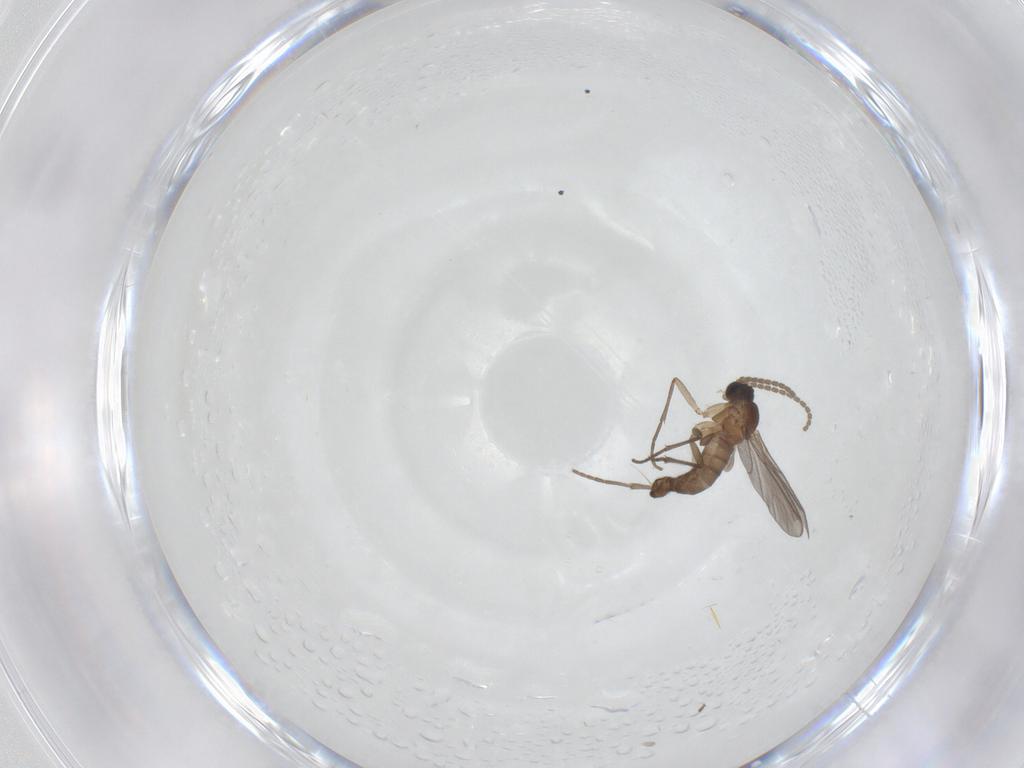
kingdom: Animalia
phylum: Arthropoda
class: Insecta
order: Diptera
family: Sciaridae
